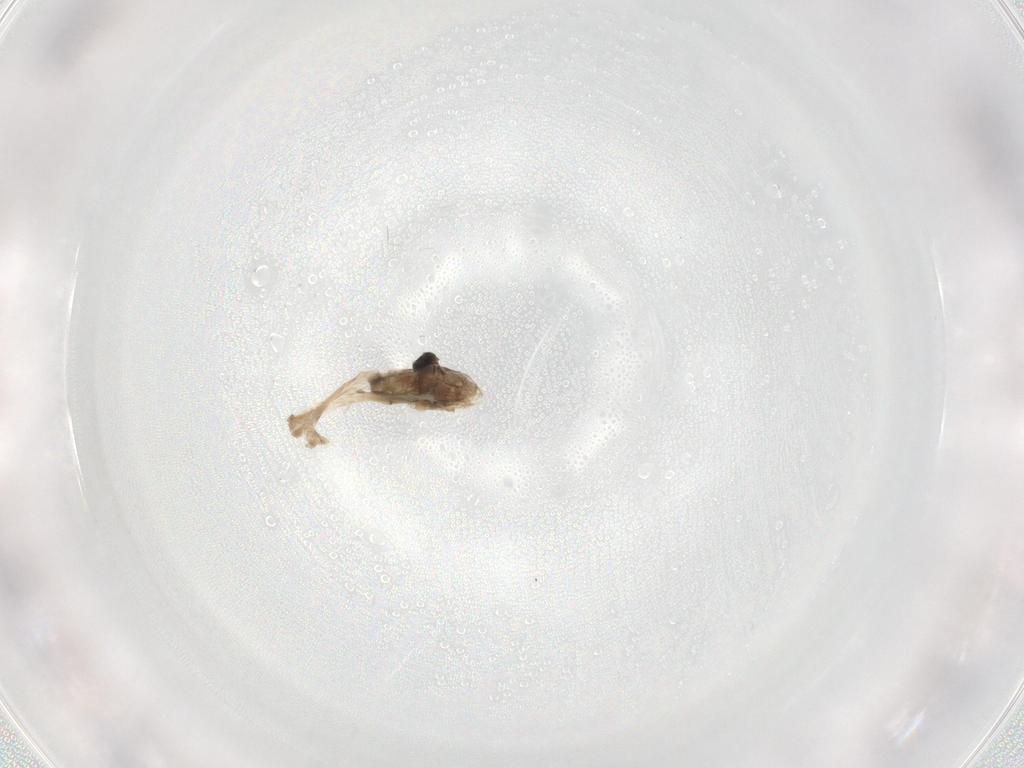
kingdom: Animalia
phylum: Arthropoda
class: Insecta
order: Diptera
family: Cecidomyiidae
